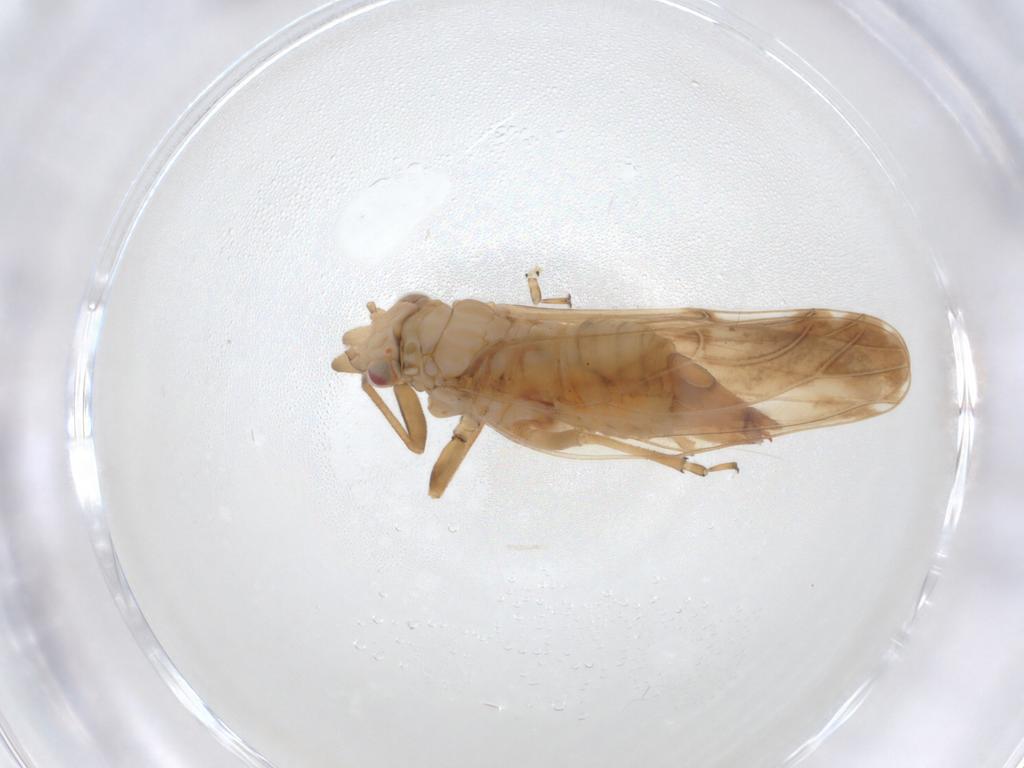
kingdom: Animalia
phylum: Arthropoda
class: Insecta
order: Hemiptera
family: Psyllidae
